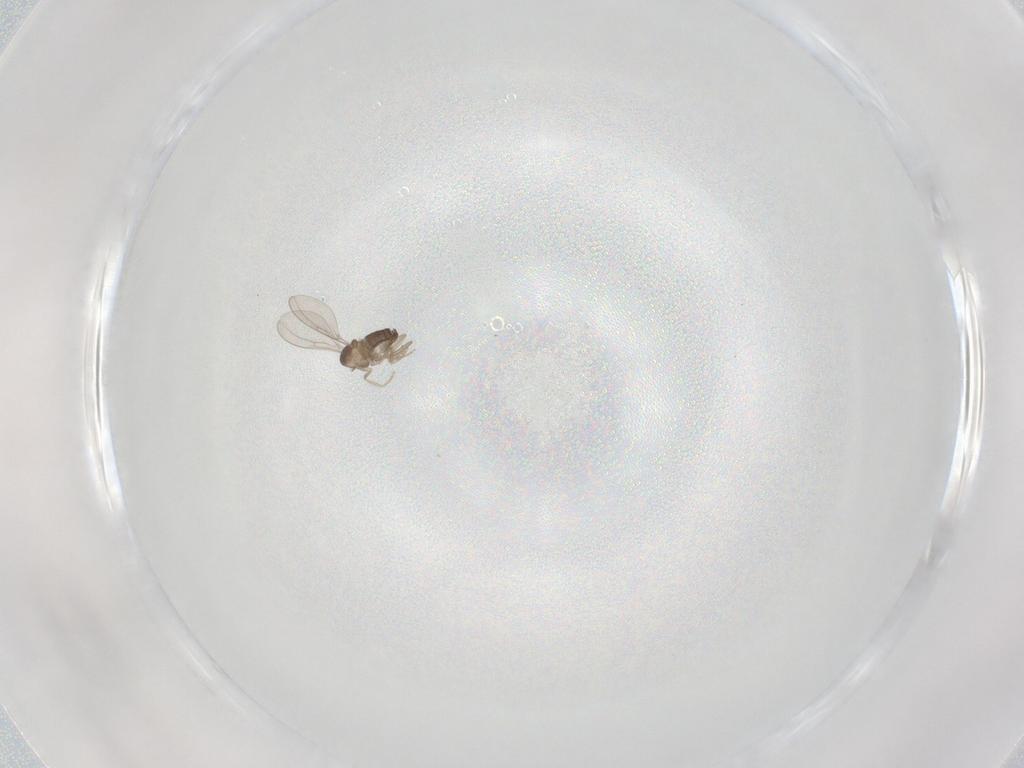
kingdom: Animalia
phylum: Arthropoda
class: Insecta
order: Diptera
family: Cecidomyiidae
